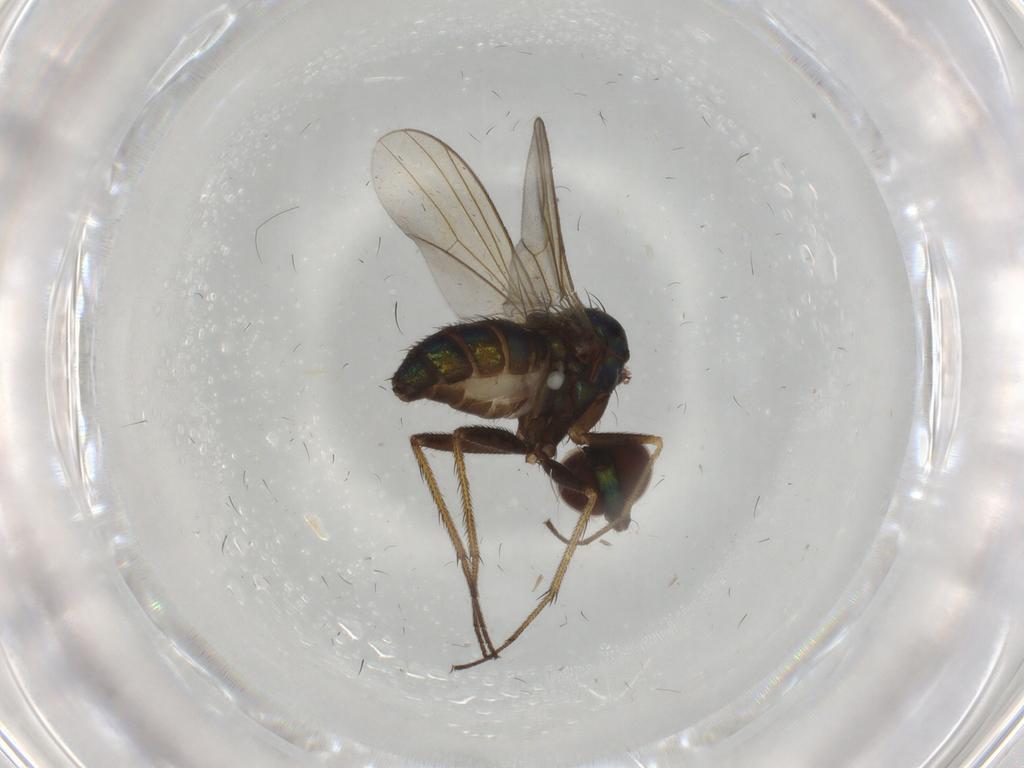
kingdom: Animalia
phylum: Arthropoda
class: Insecta
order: Diptera
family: Dolichopodidae
